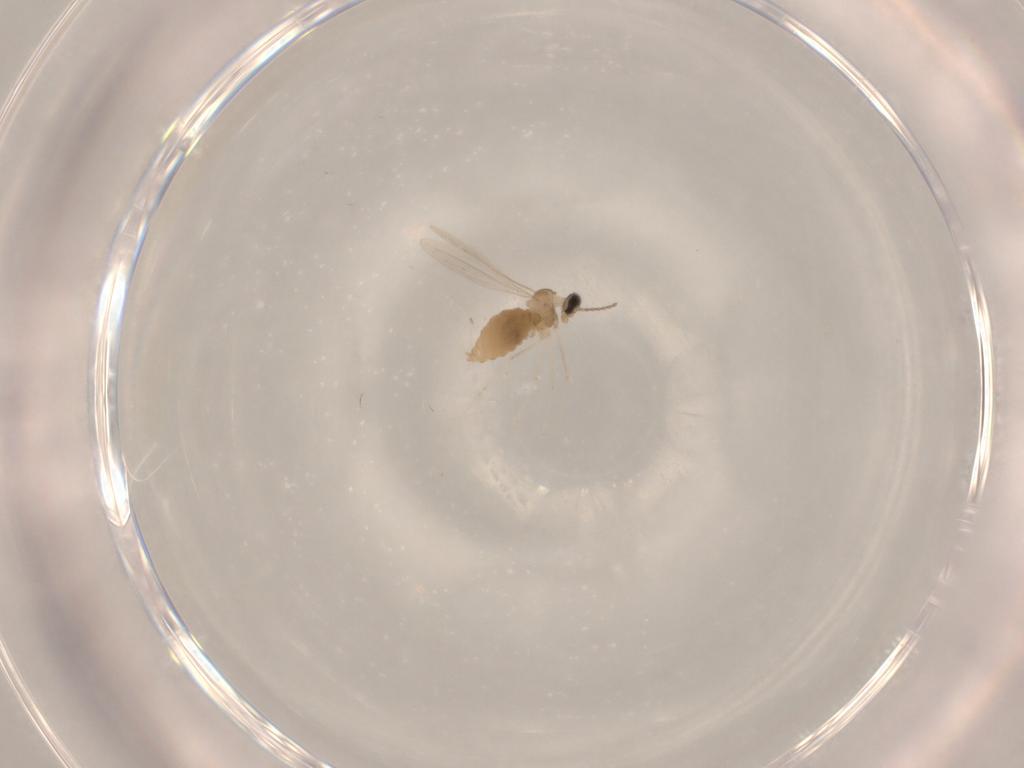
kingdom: Animalia
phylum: Arthropoda
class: Insecta
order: Diptera
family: Cecidomyiidae
